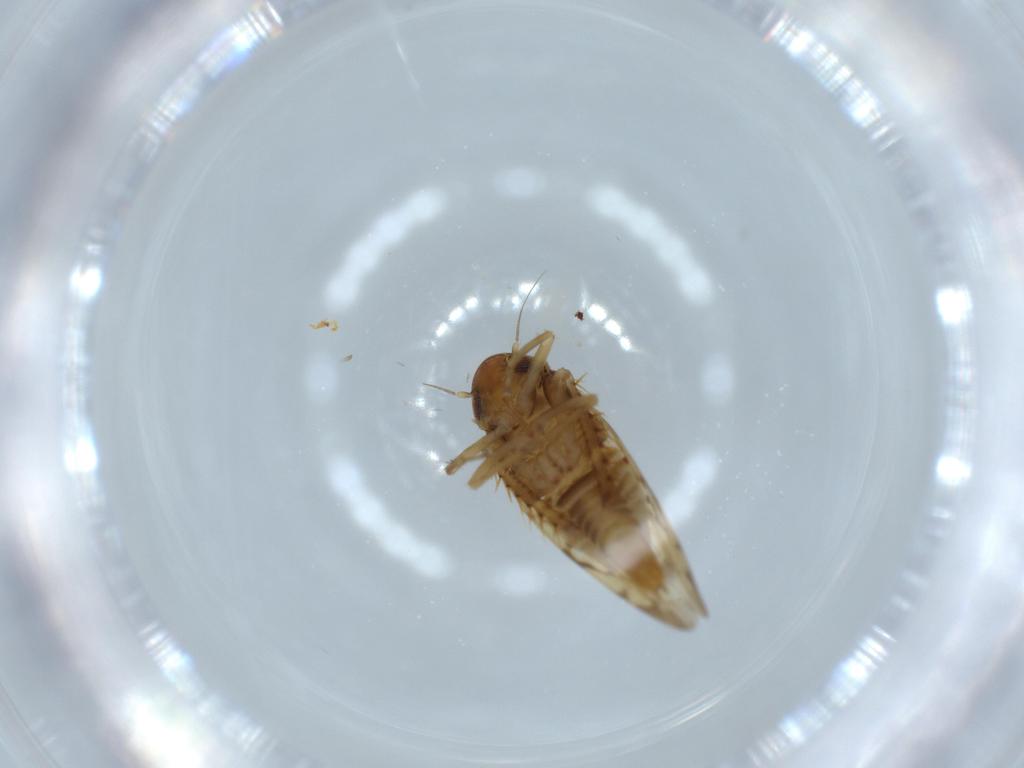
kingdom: Animalia
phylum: Arthropoda
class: Insecta
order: Hemiptera
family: Cicadellidae
